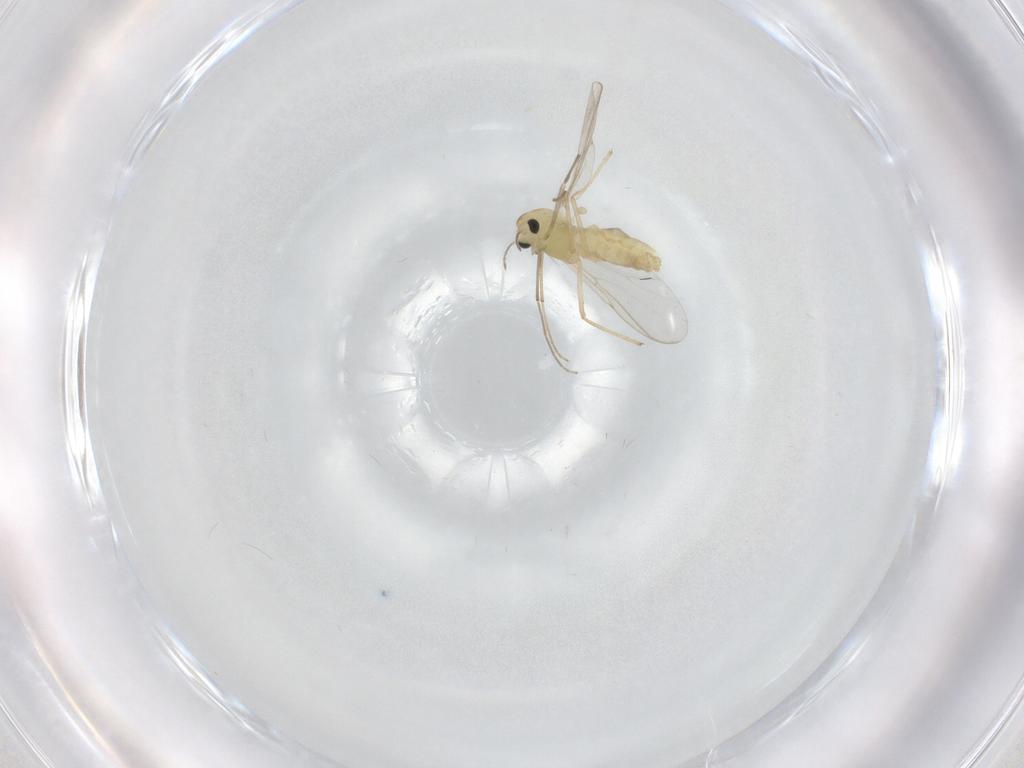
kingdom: Animalia
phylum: Arthropoda
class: Insecta
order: Diptera
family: Chironomidae
